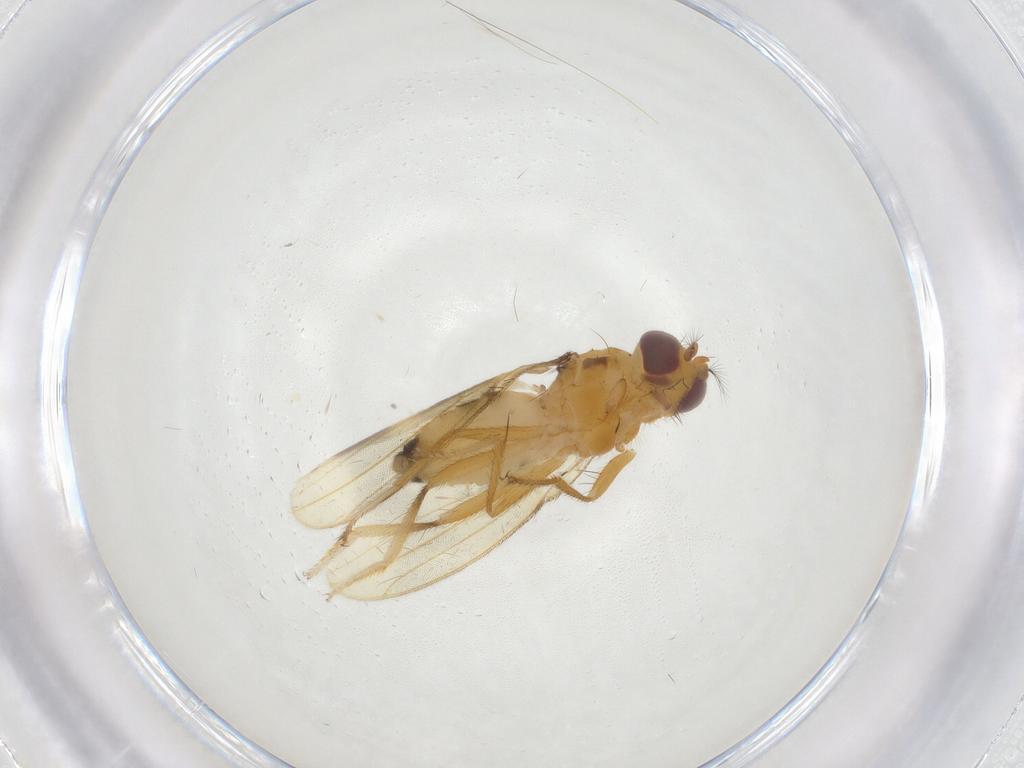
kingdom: Animalia
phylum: Arthropoda
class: Insecta
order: Diptera
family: Periscelididae
